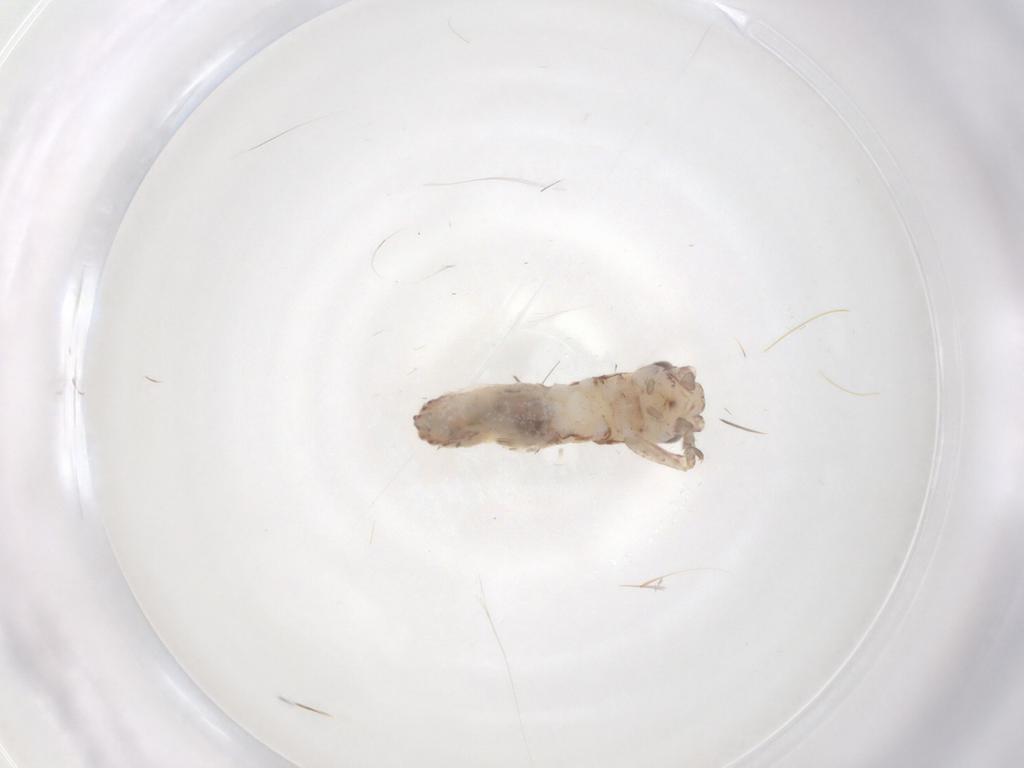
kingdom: Animalia
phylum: Arthropoda
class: Insecta
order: Orthoptera
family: Mogoplistidae
